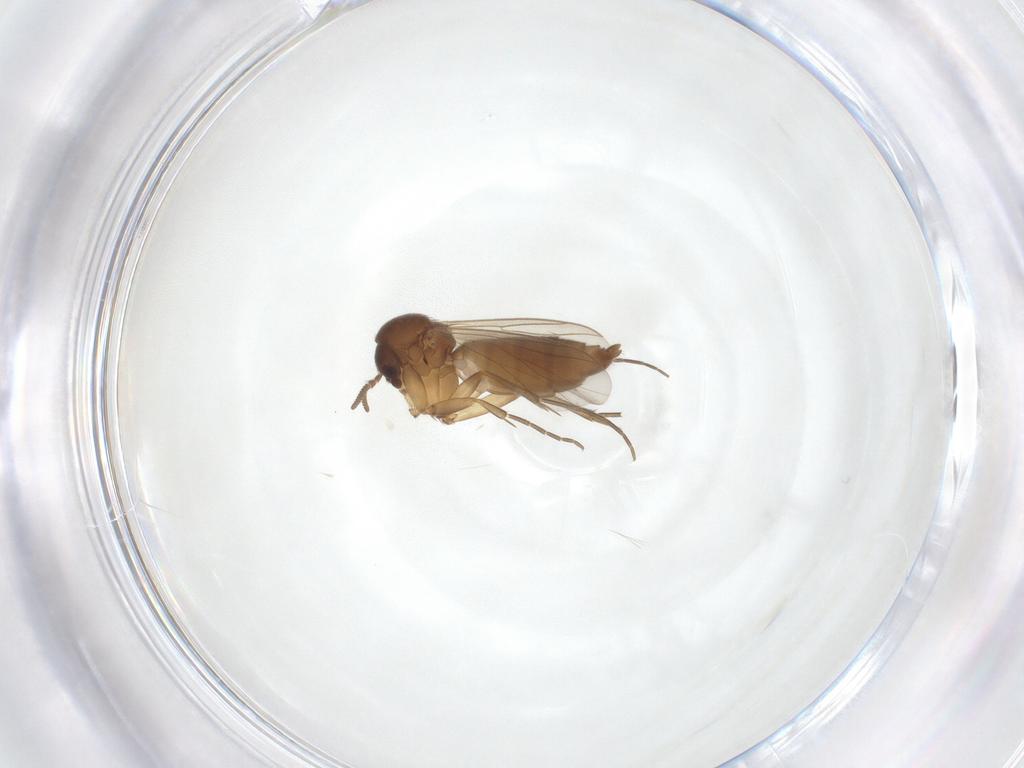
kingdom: Animalia
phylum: Arthropoda
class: Insecta
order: Diptera
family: Mycetophilidae
